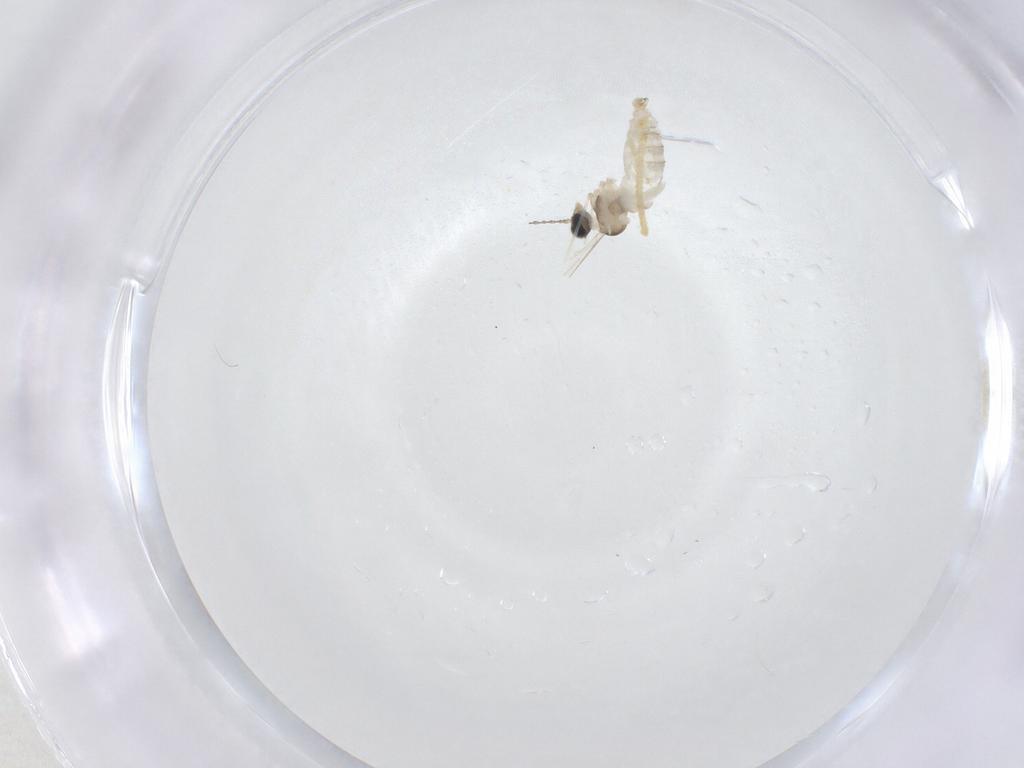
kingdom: Animalia
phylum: Arthropoda
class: Insecta
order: Diptera
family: Cecidomyiidae
